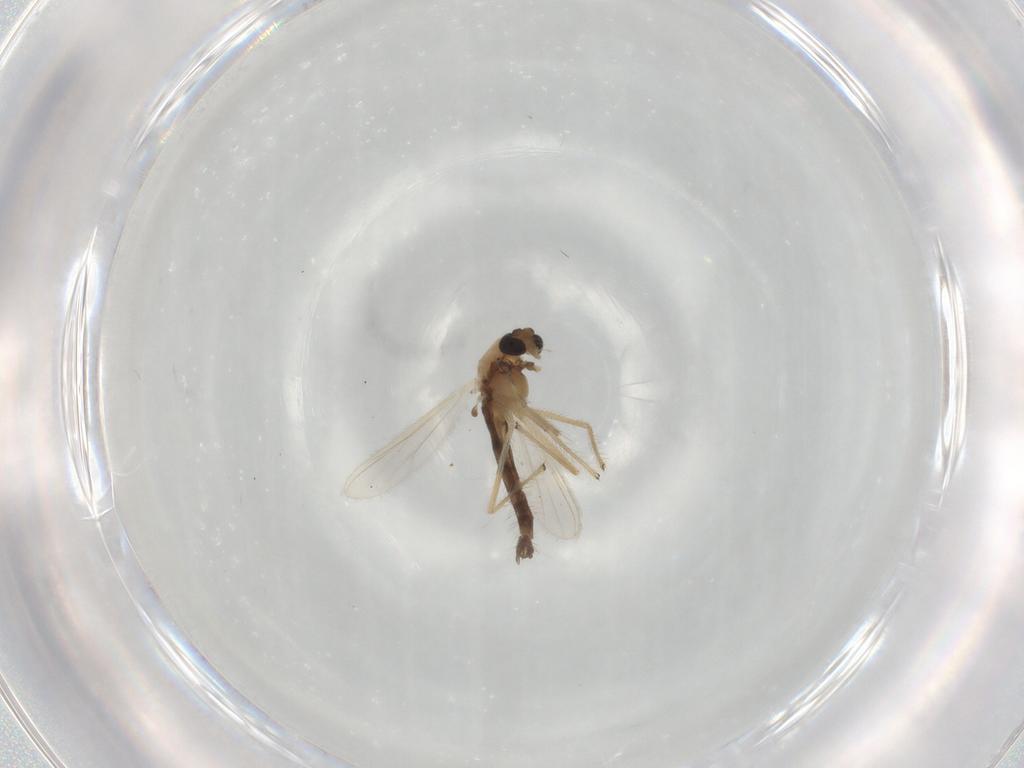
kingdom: Animalia
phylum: Arthropoda
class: Insecta
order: Diptera
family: Chironomidae
